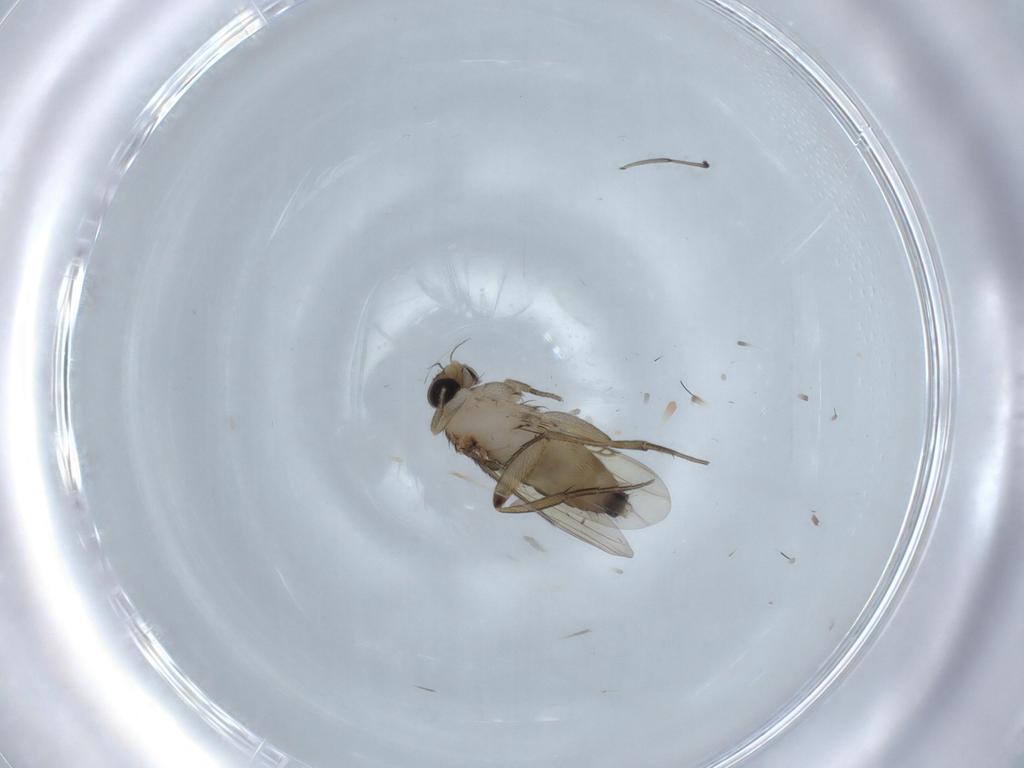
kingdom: Animalia
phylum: Arthropoda
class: Insecta
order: Diptera
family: Phoridae
